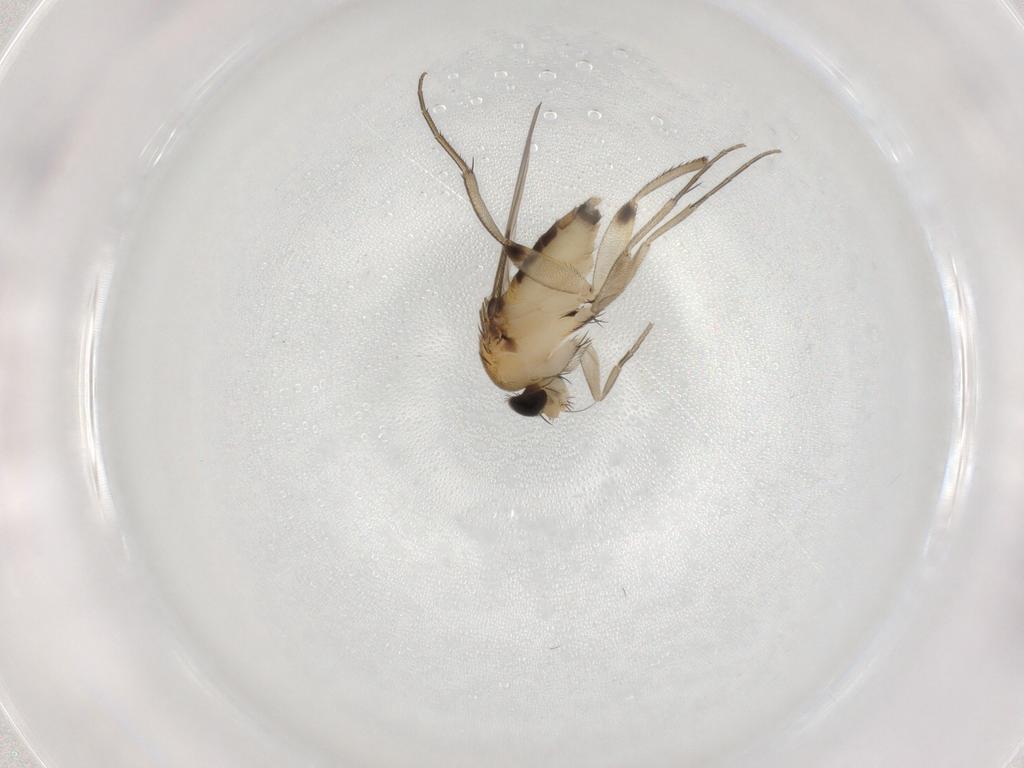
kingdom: Animalia
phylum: Arthropoda
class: Insecta
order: Diptera
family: Phoridae
